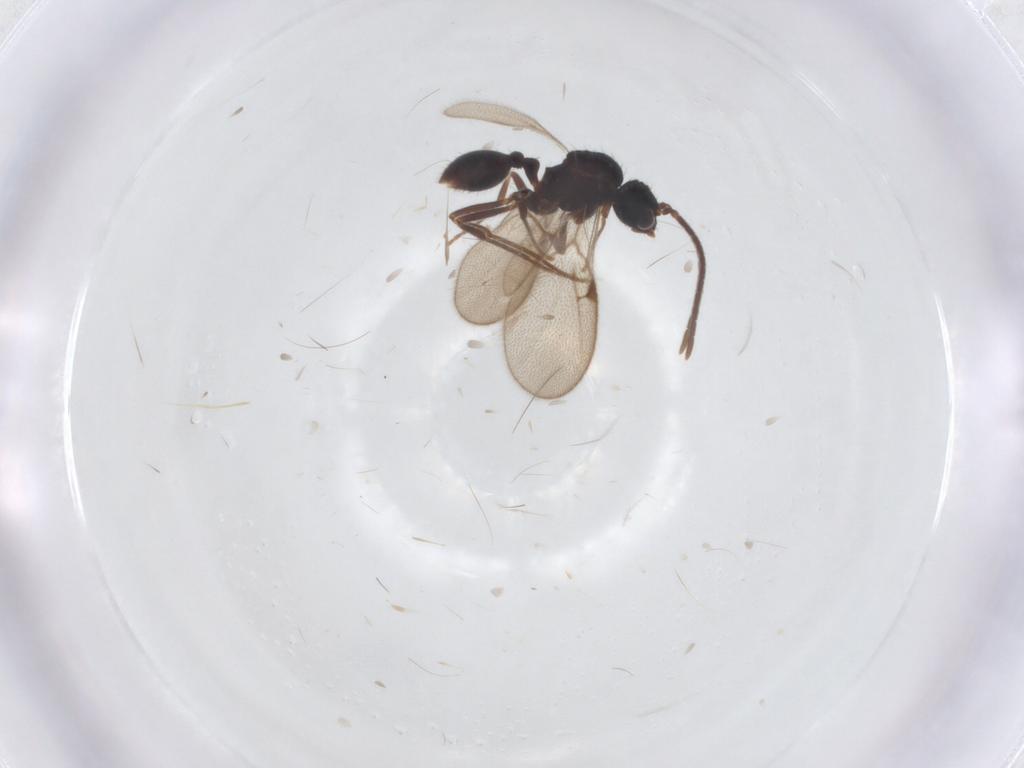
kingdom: Animalia
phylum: Arthropoda
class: Insecta
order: Hymenoptera
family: Formicidae
